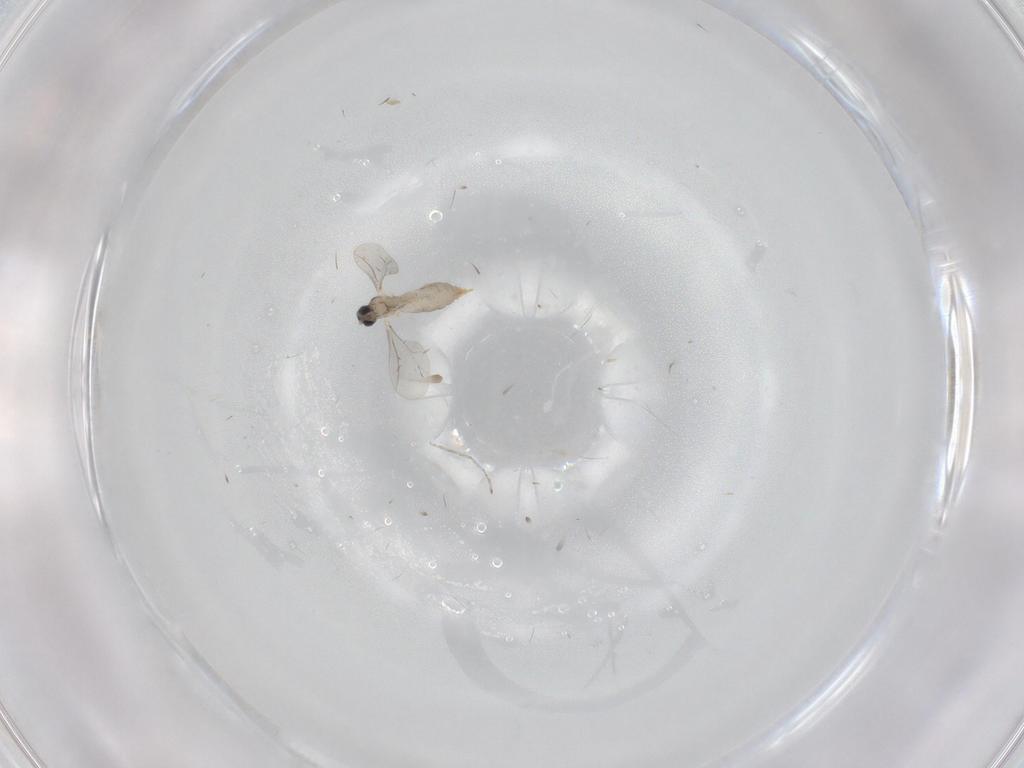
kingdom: Animalia
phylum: Arthropoda
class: Insecta
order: Diptera
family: Cecidomyiidae
